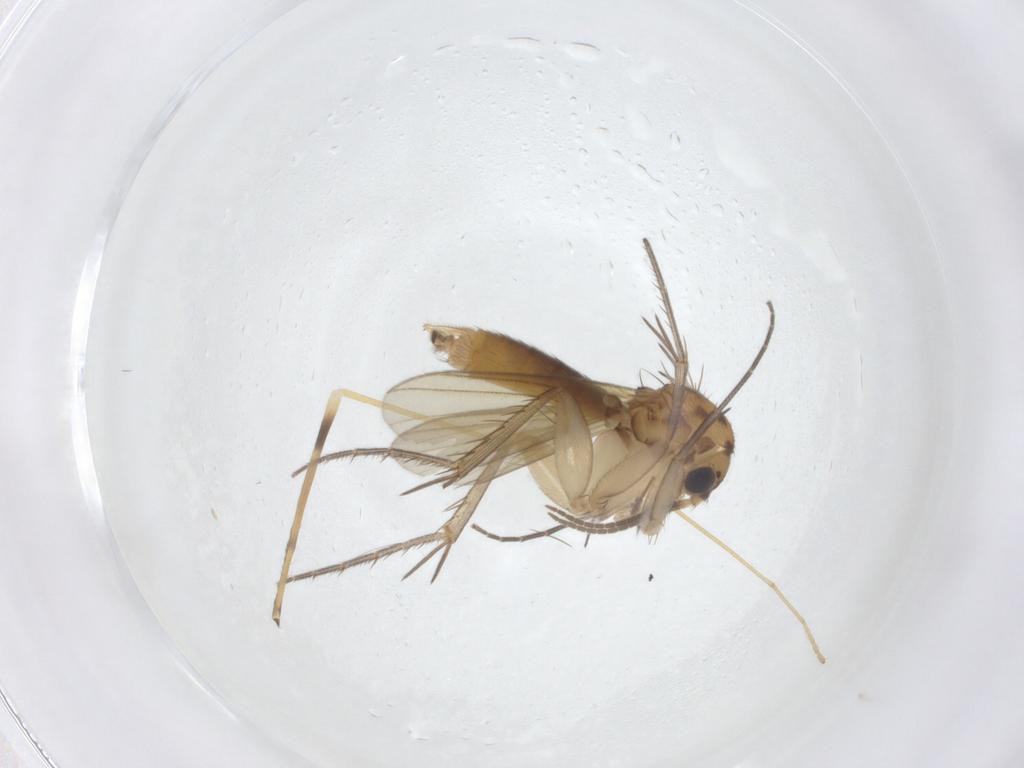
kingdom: Animalia
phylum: Arthropoda
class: Insecta
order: Diptera
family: Mycetophilidae
